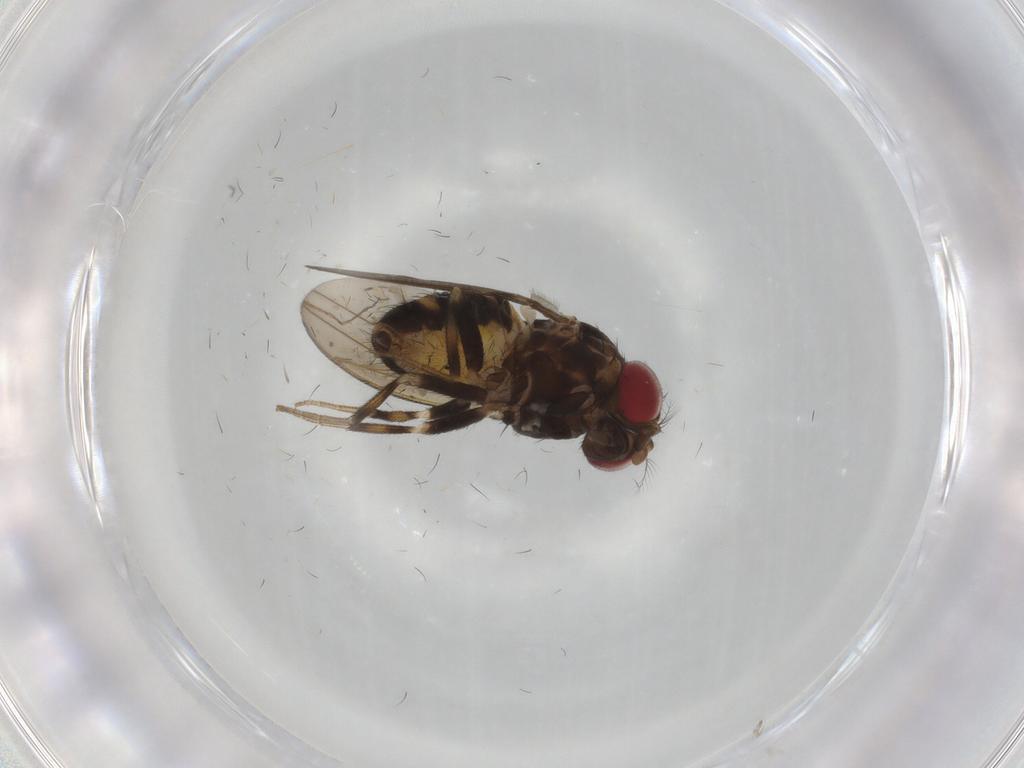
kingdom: Animalia
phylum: Arthropoda
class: Insecta
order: Diptera
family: Drosophilidae
